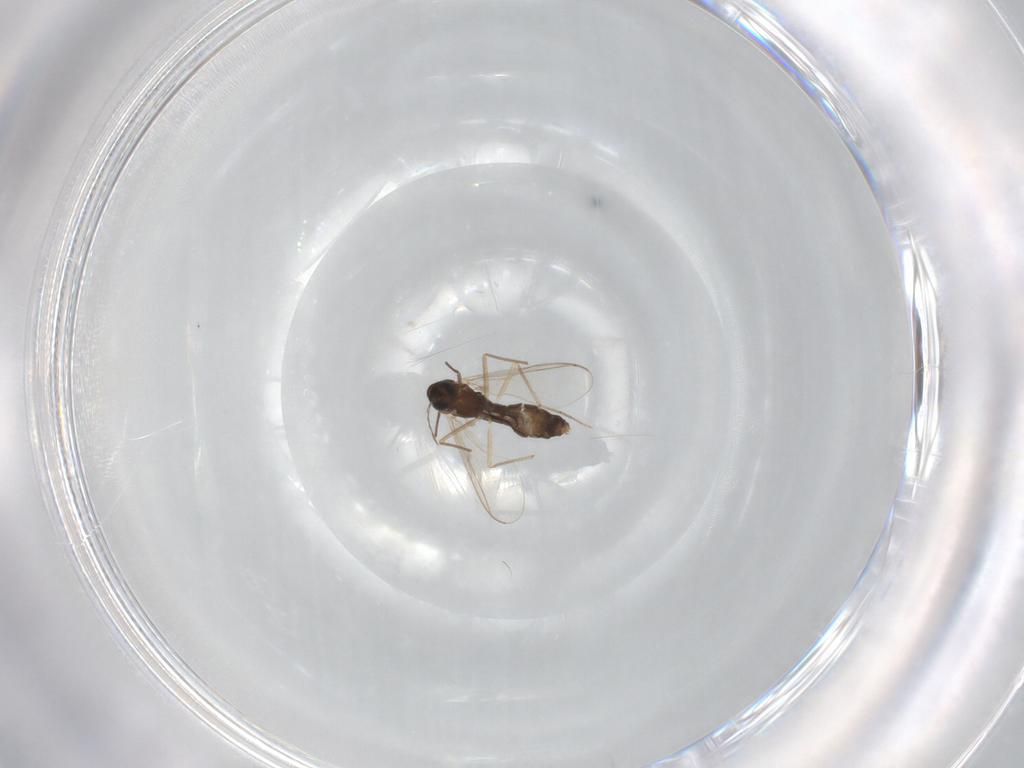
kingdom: Animalia
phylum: Arthropoda
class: Insecta
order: Diptera
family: Chironomidae
